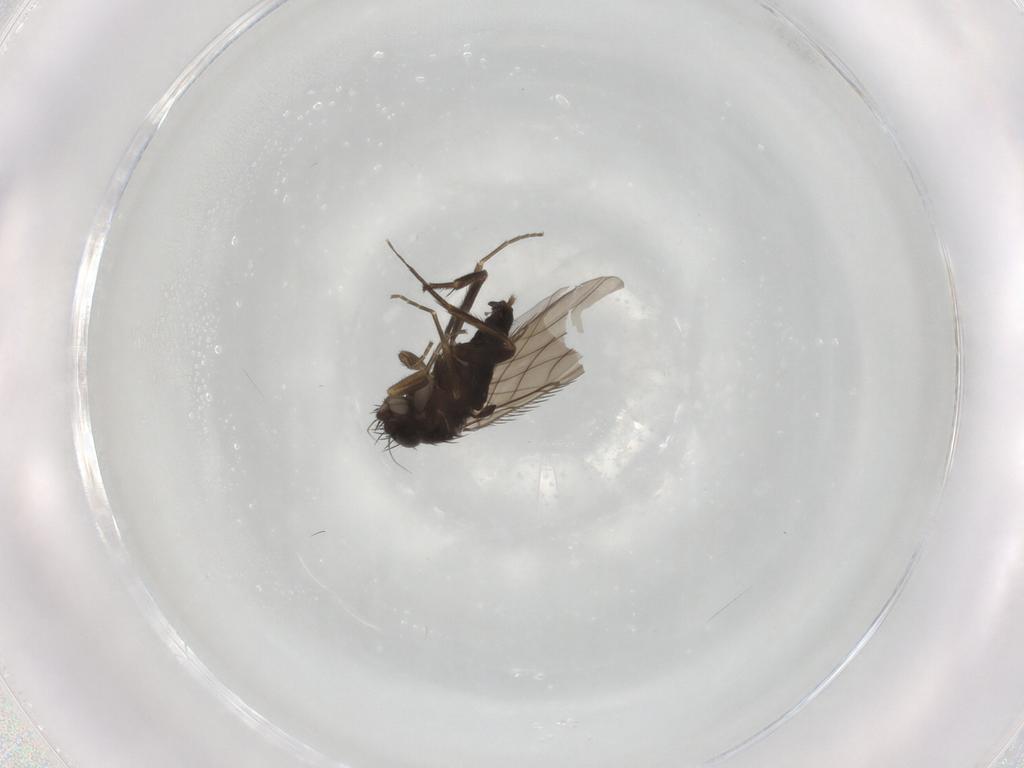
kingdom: Animalia
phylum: Arthropoda
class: Insecta
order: Diptera
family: Phoridae
